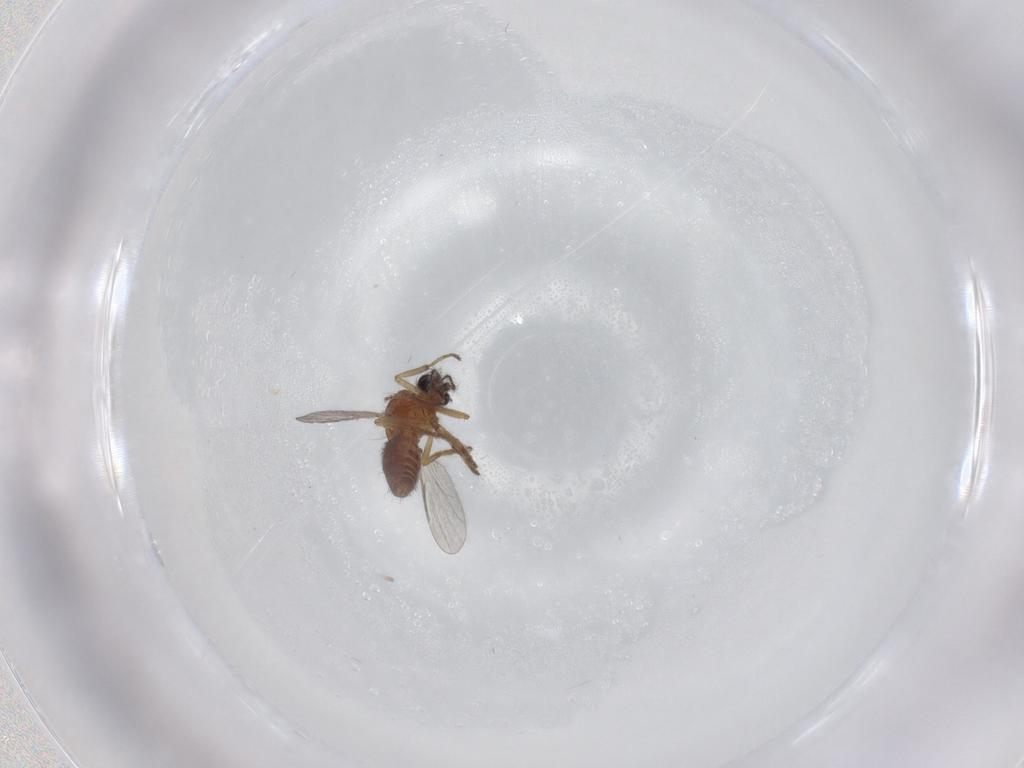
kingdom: Animalia
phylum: Arthropoda
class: Insecta
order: Diptera
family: Ceratopogonidae
